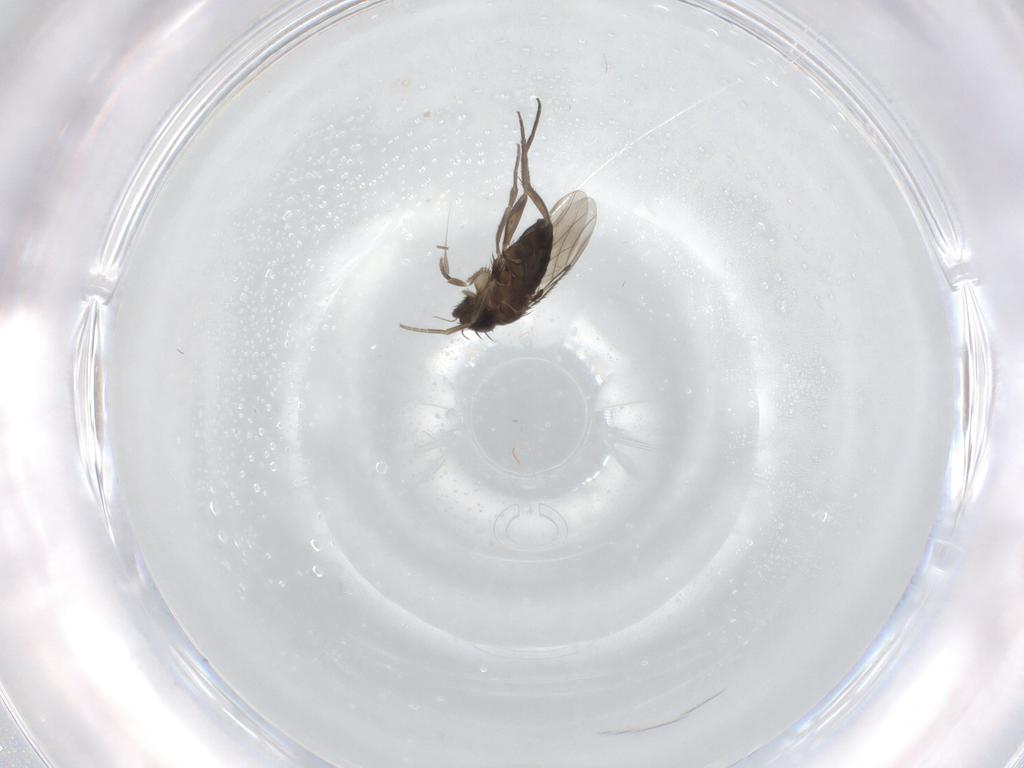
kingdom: Animalia
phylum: Arthropoda
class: Insecta
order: Diptera
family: Phoridae
